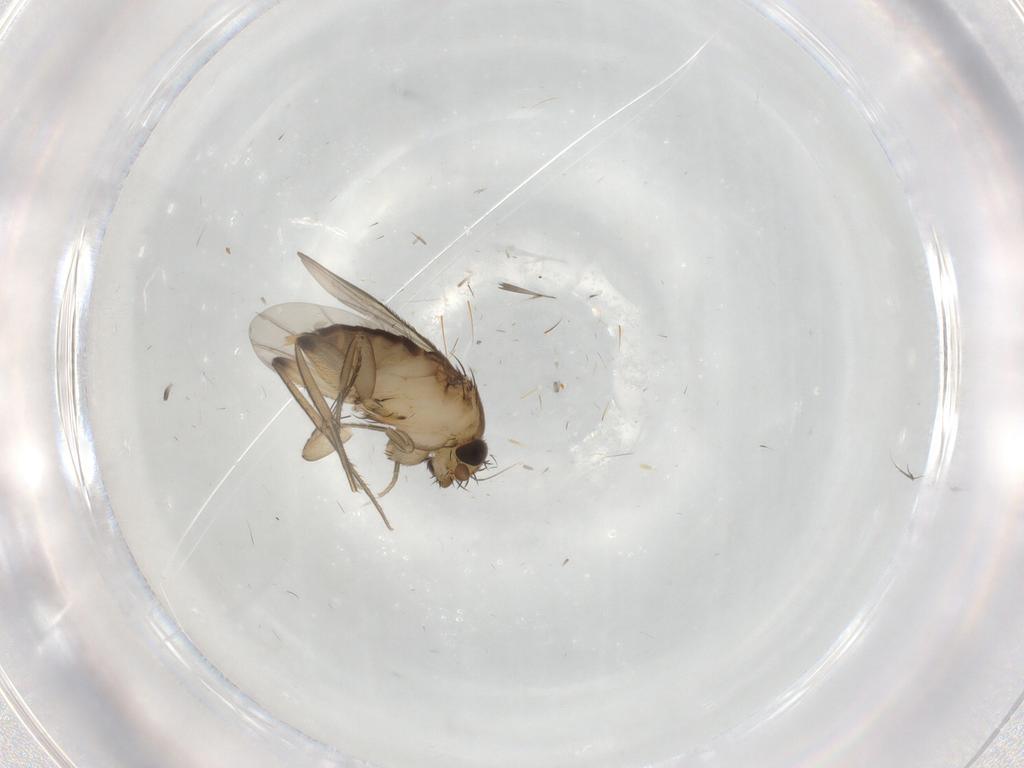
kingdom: Animalia
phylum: Arthropoda
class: Insecta
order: Diptera
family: Phoridae
